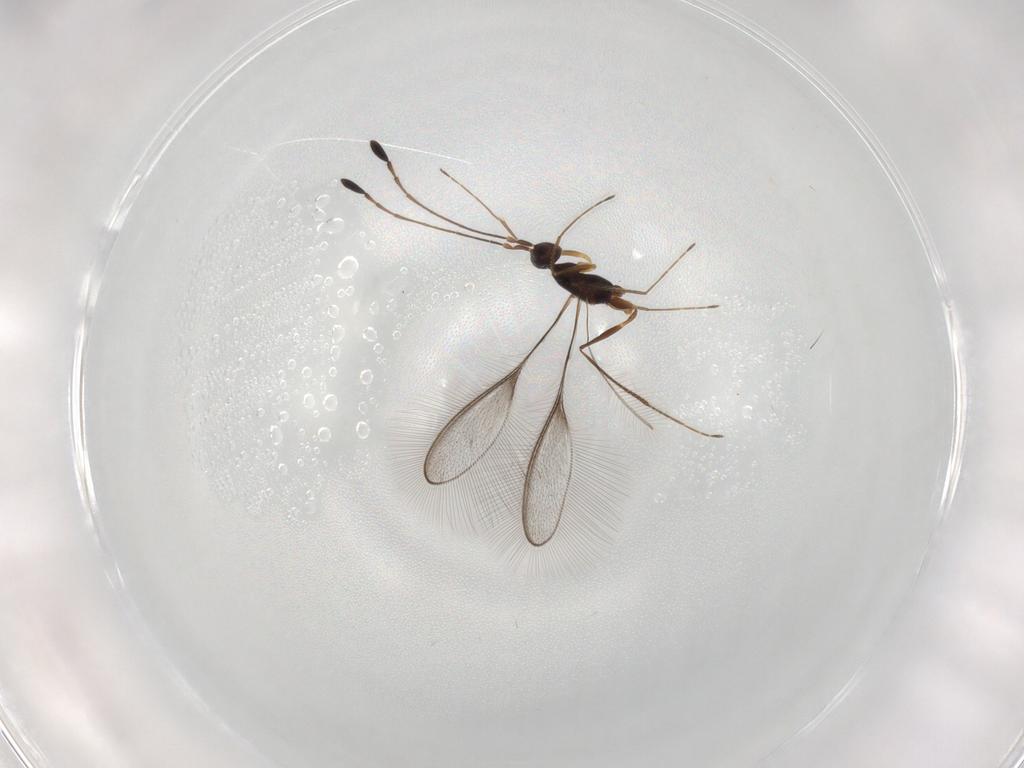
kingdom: Animalia
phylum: Arthropoda
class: Insecta
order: Hymenoptera
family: Mymaridae
